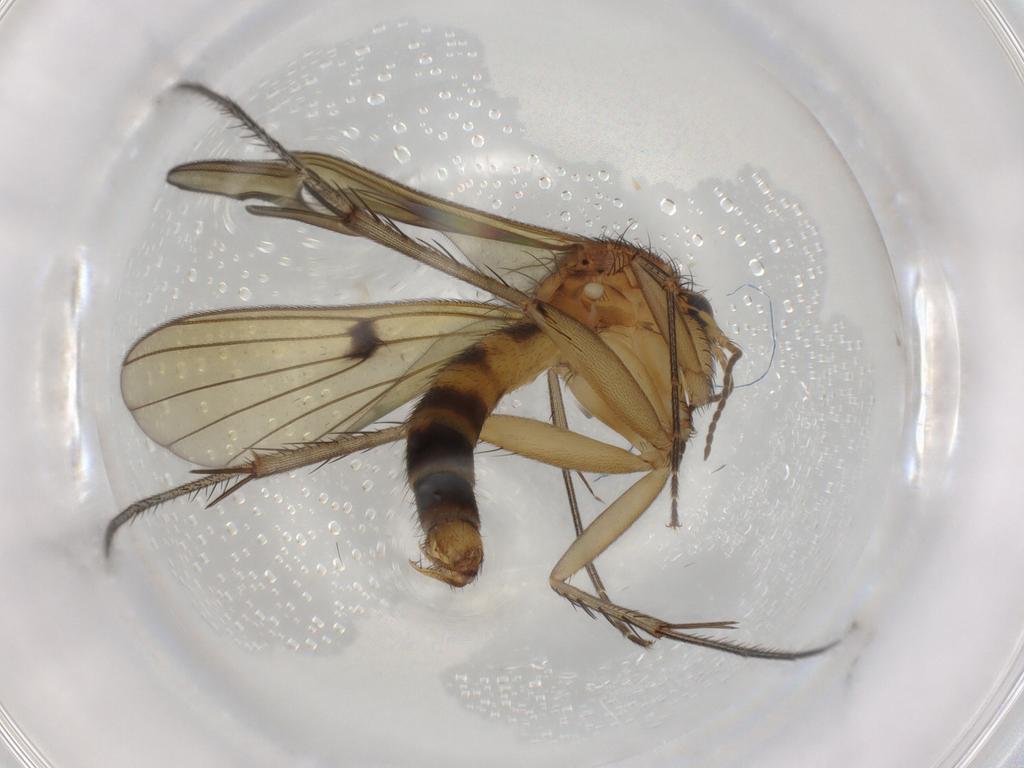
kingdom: Animalia
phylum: Arthropoda
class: Insecta
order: Diptera
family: Mycetophilidae
